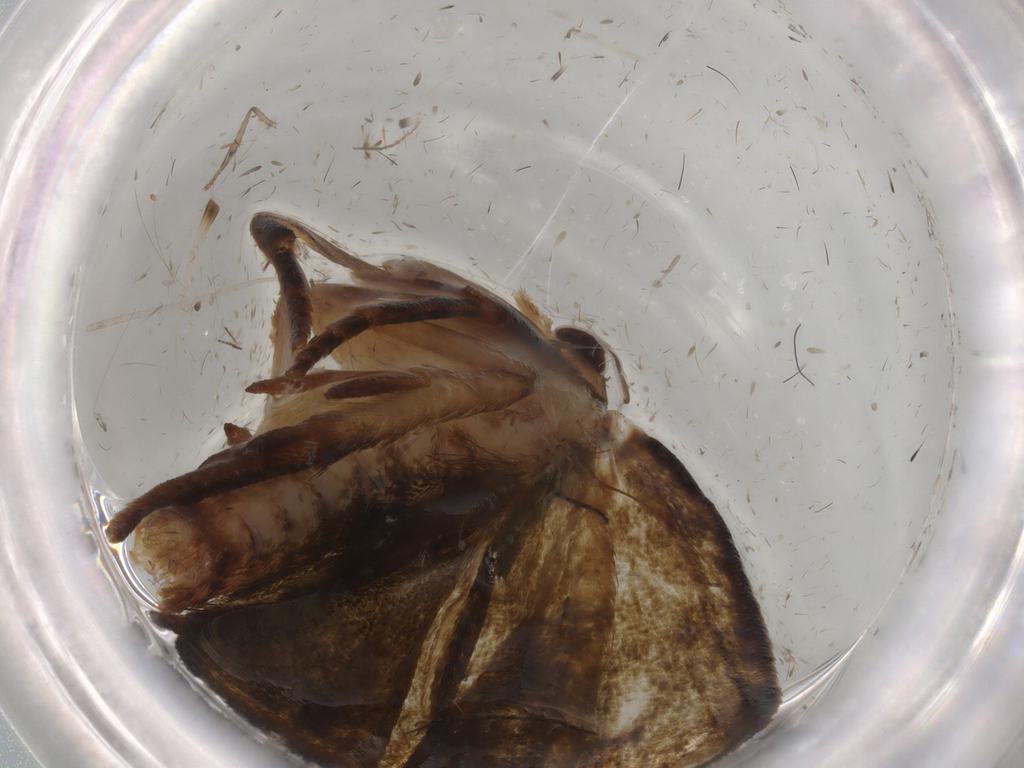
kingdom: Animalia
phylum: Arthropoda
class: Insecta
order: Lepidoptera
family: Geometridae
